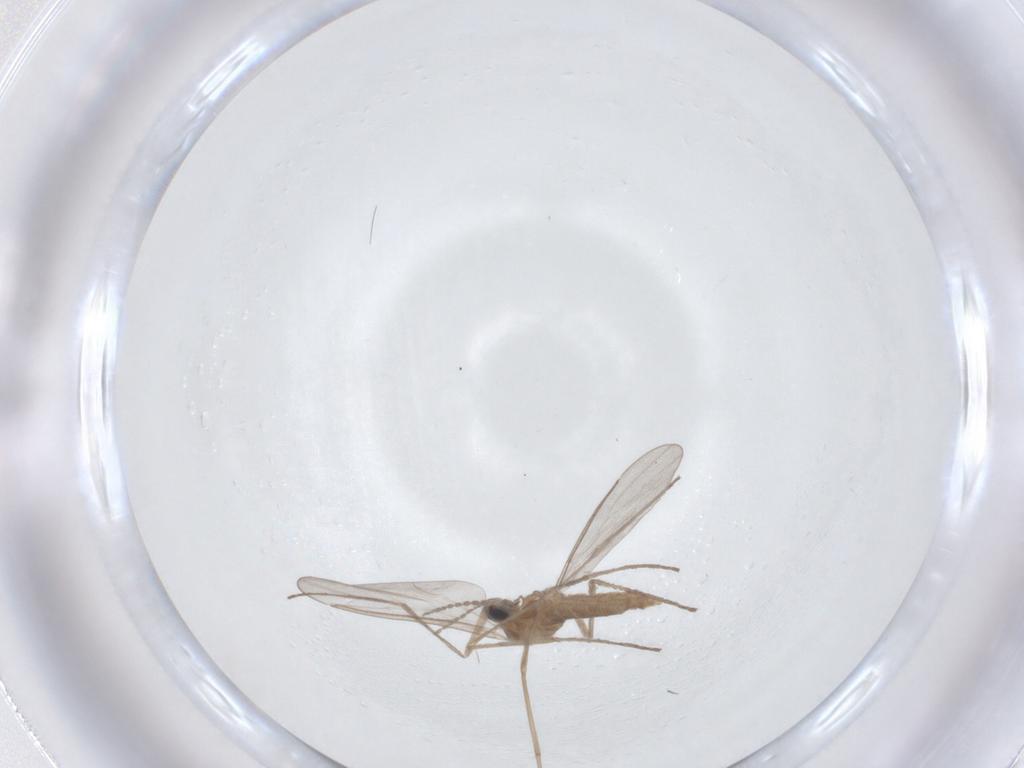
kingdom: Animalia
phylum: Arthropoda
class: Insecta
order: Diptera
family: Cecidomyiidae
